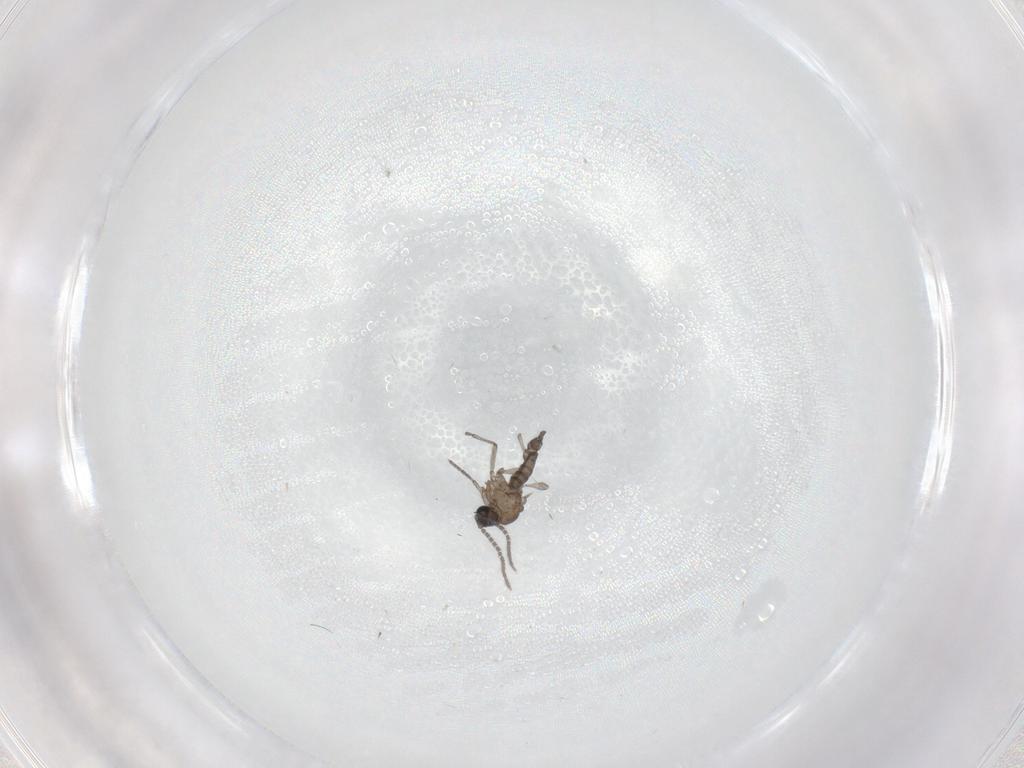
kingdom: Animalia
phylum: Arthropoda
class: Insecta
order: Diptera
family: Sciaridae
